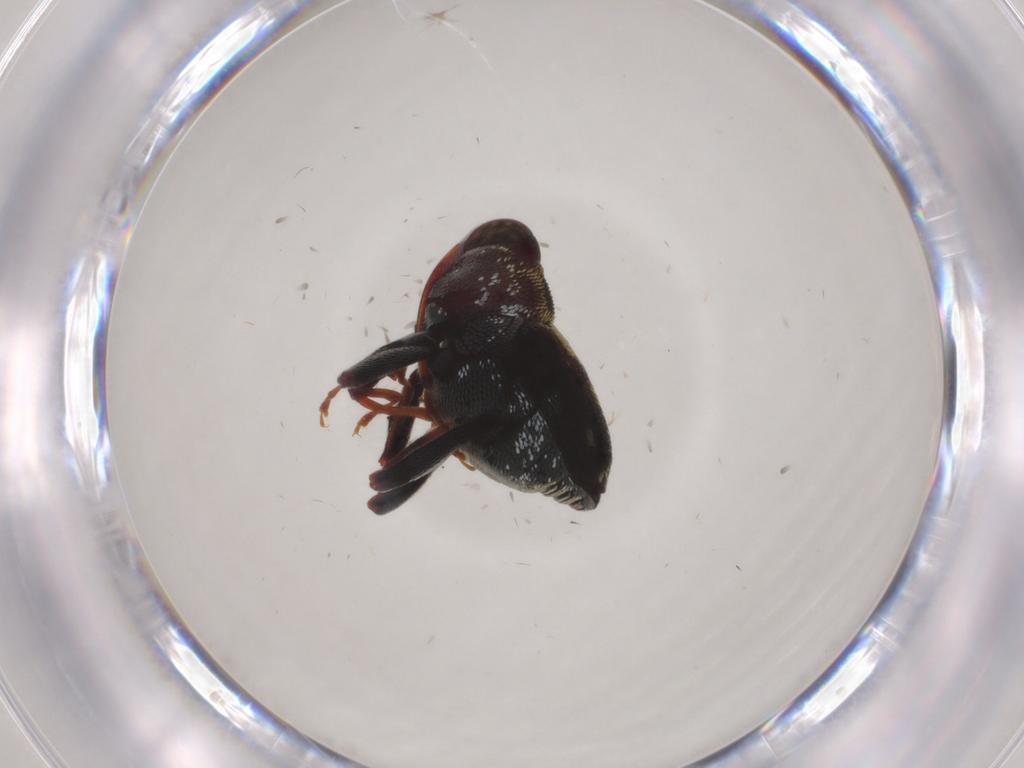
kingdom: Animalia
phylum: Arthropoda
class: Insecta
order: Coleoptera
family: Curculionidae
